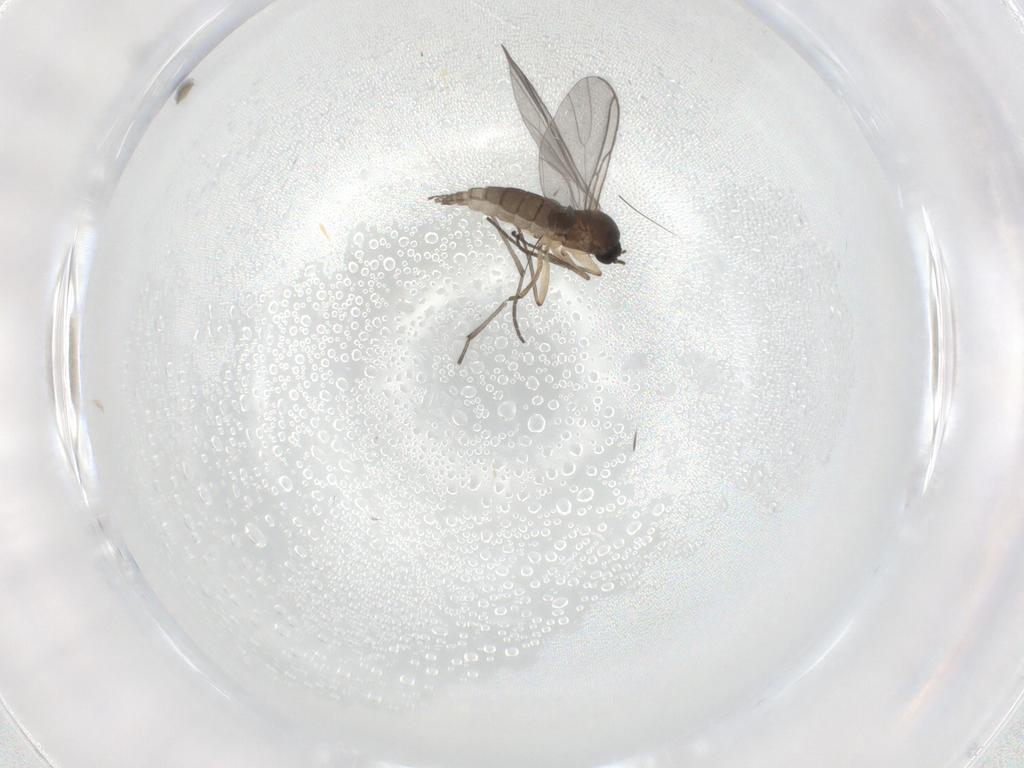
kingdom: Animalia
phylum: Arthropoda
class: Insecta
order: Diptera
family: Sciaridae
